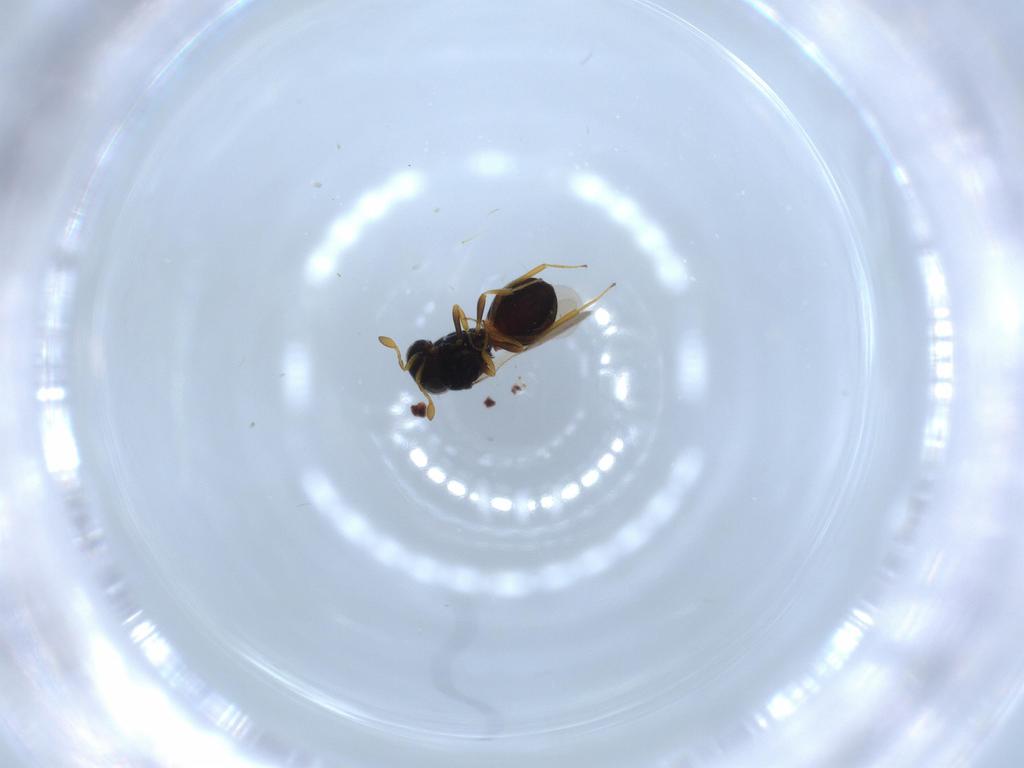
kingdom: Animalia
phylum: Arthropoda
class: Insecta
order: Hymenoptera
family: Scelionidae
